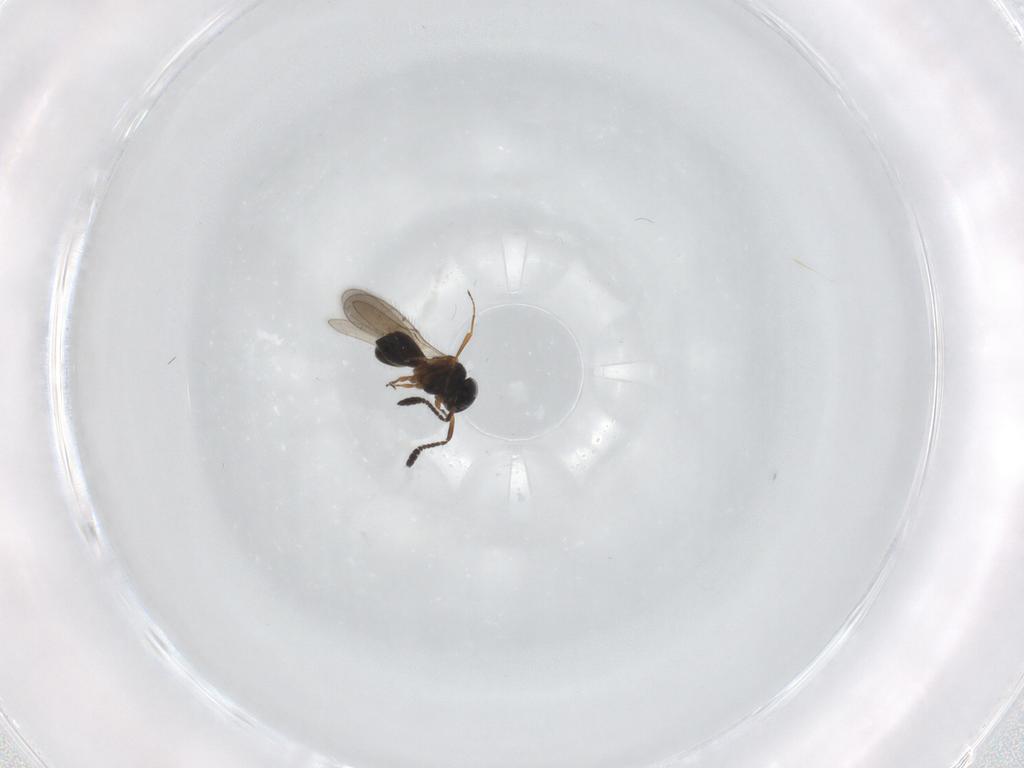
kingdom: Animalia
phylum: Arthropoda
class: Insecta
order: Hymenoptera
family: Scelionidae
